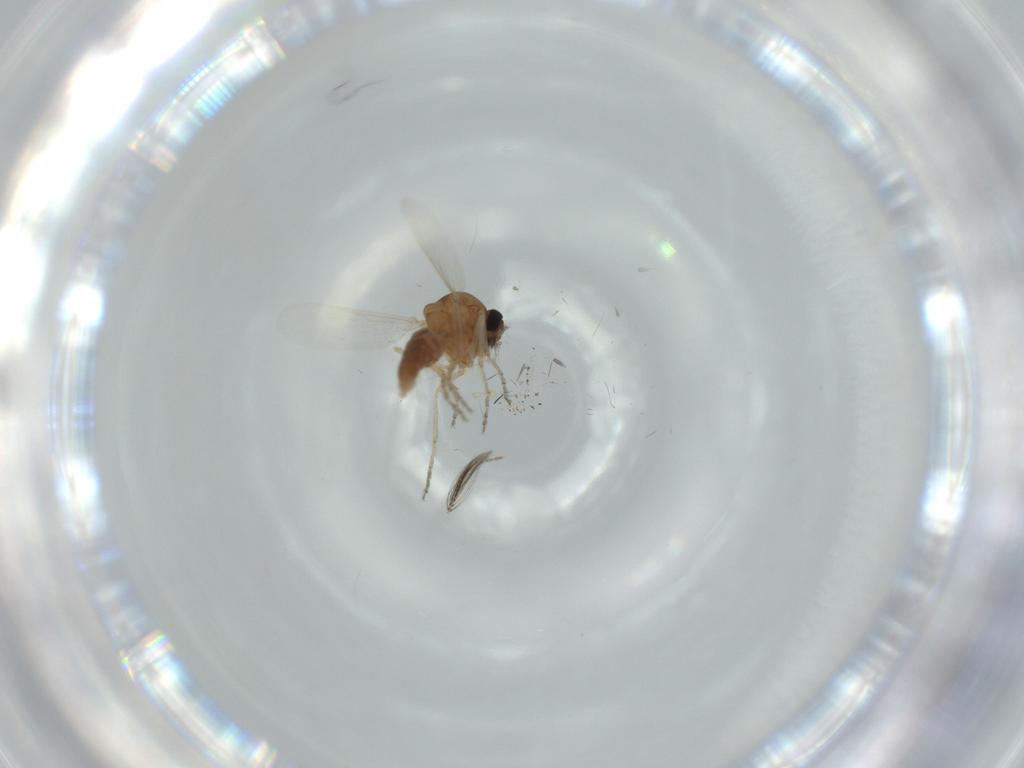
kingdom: Animalia
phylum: Arthropoda
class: Insecta
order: Diptera
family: Ceratopogonidae
